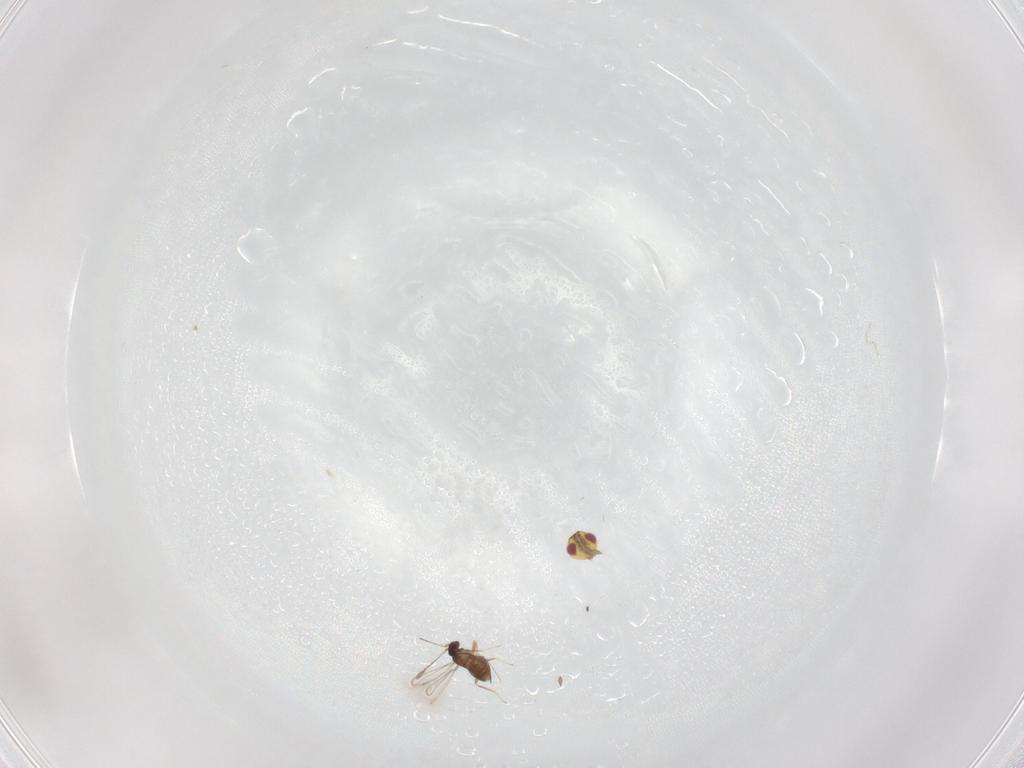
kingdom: Animalia
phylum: Arthropoda
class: Insecta
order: Hymenoptera
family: Eulophidae
